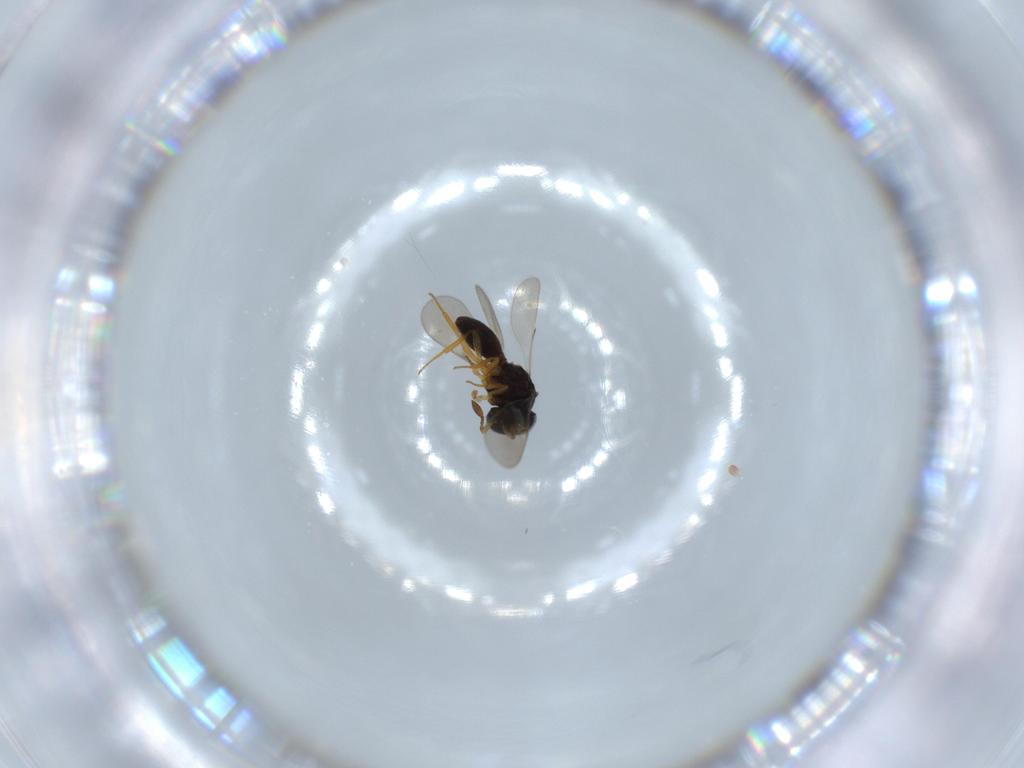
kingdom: Animalia
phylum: Arthropoda
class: Insecta
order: Hymenoptera
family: Scelionidae
